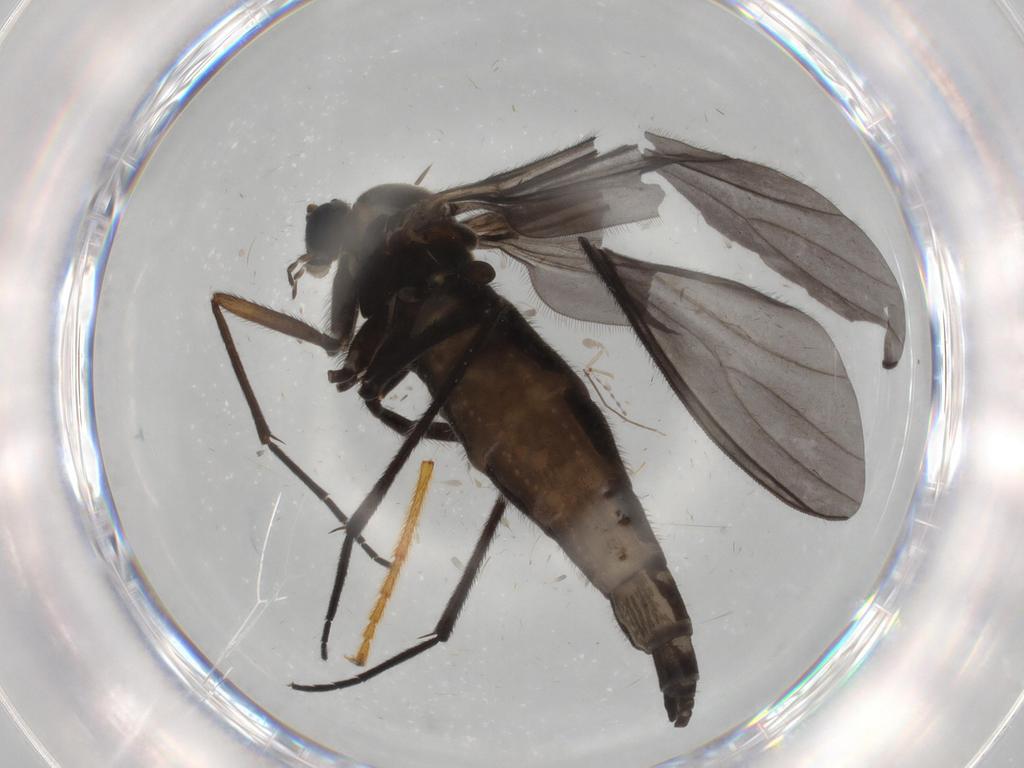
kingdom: Animalia
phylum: Arthropoda
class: Insecta
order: Diptera
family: Sciaridae
